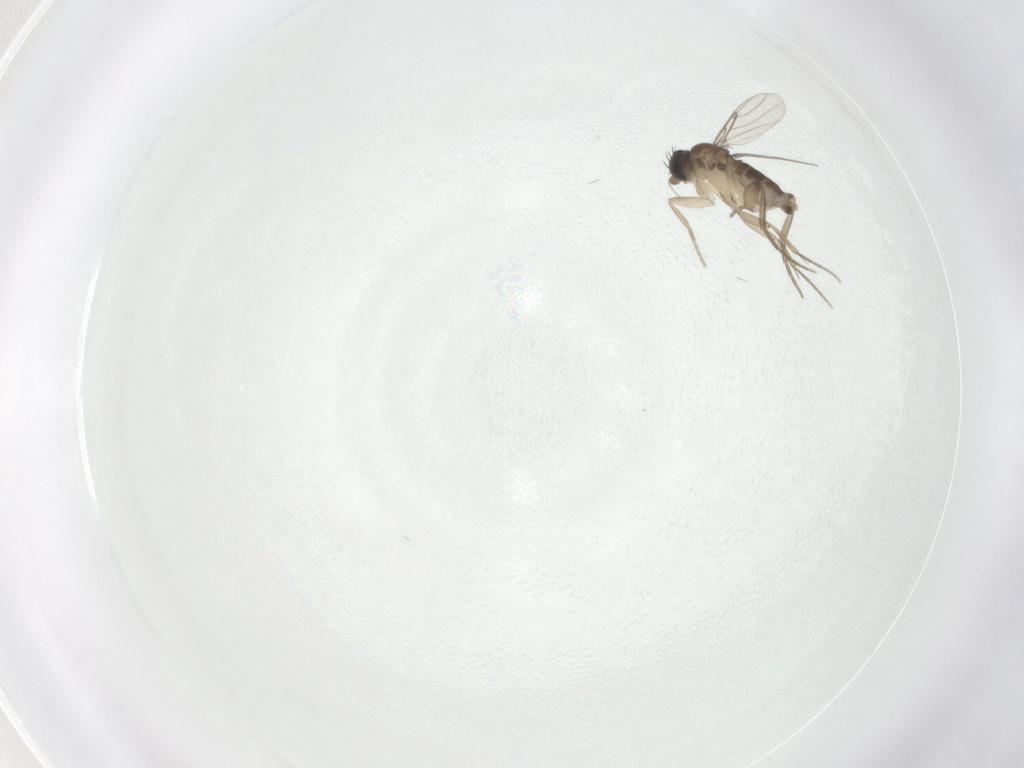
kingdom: Animalia
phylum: Arthropoda
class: Insecta
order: Diptera
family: Phoridae
